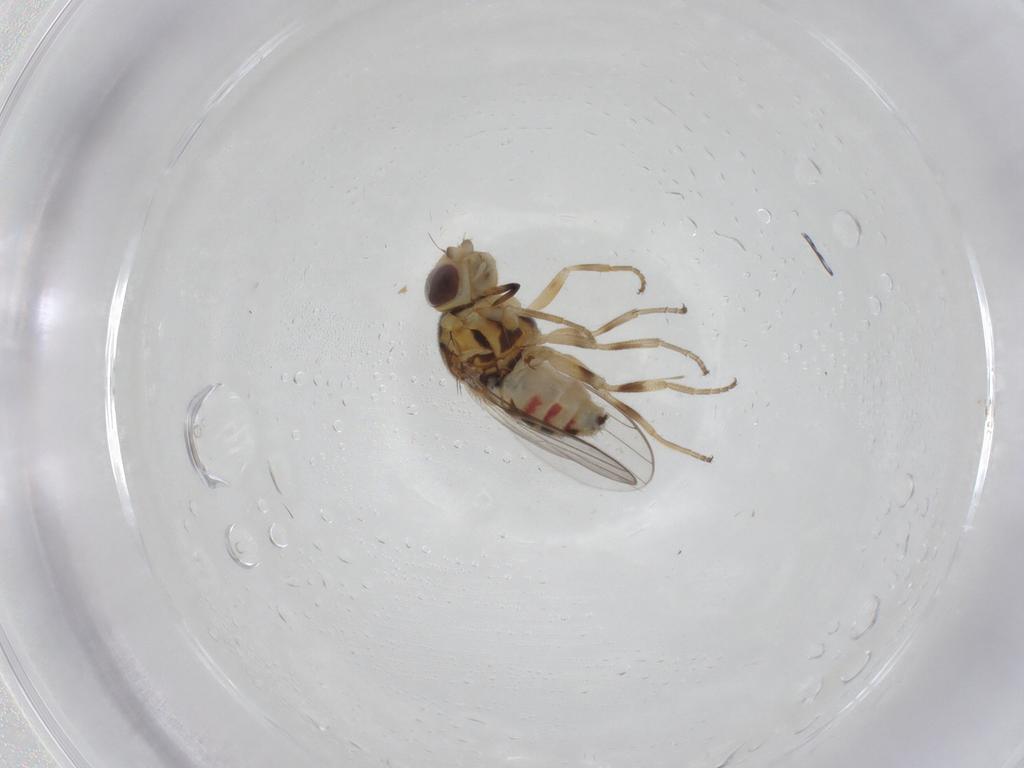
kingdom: Animalia
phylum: Arthropoda
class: Insecta
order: Diptera
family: Chloropidae
